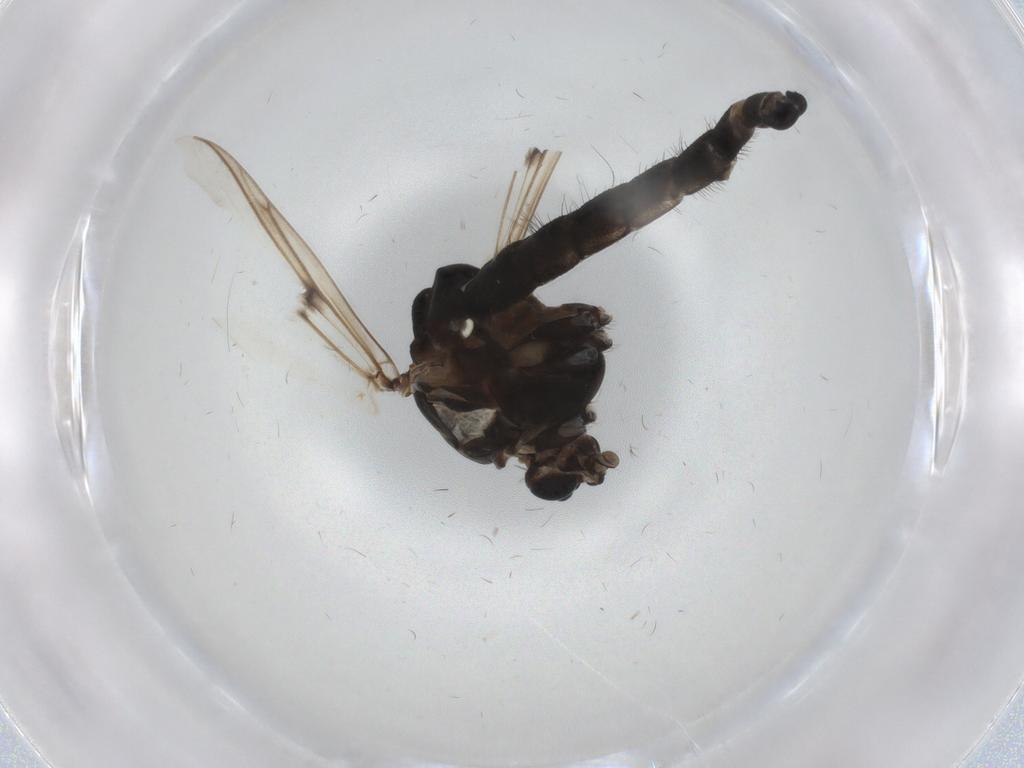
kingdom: Animalia
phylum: Arthropoda
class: Insecta
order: Diptera
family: Chironomidae
